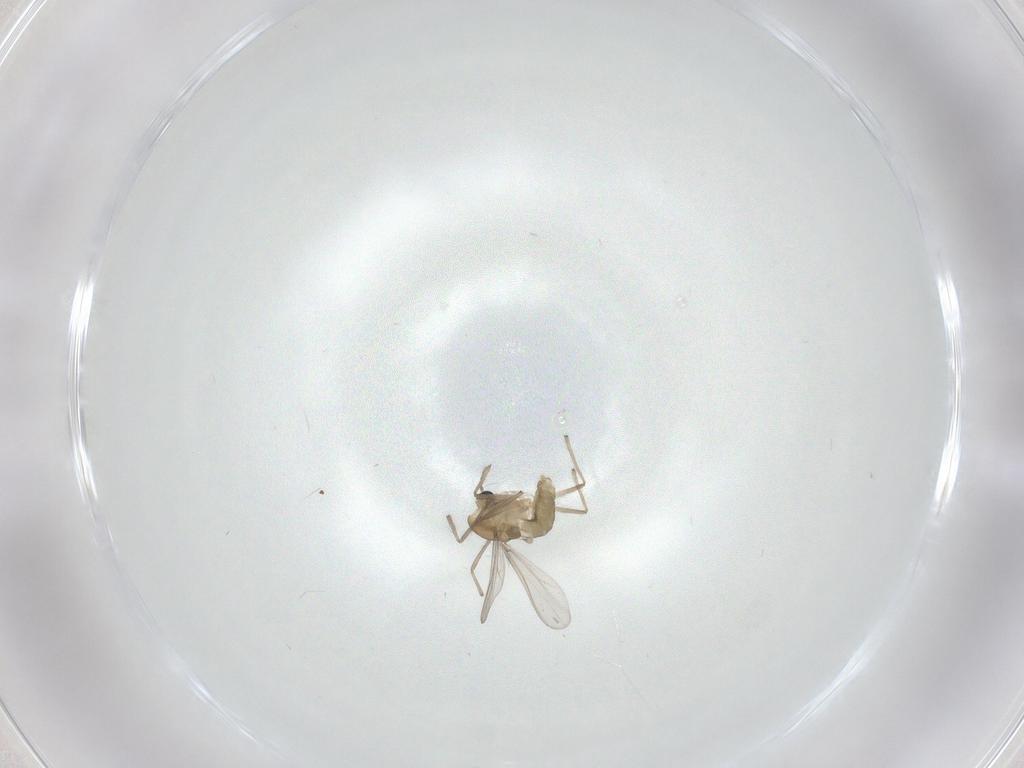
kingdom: Animalia
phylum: Arthropoda
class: Insecta
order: Diptera
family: Chironomidae
